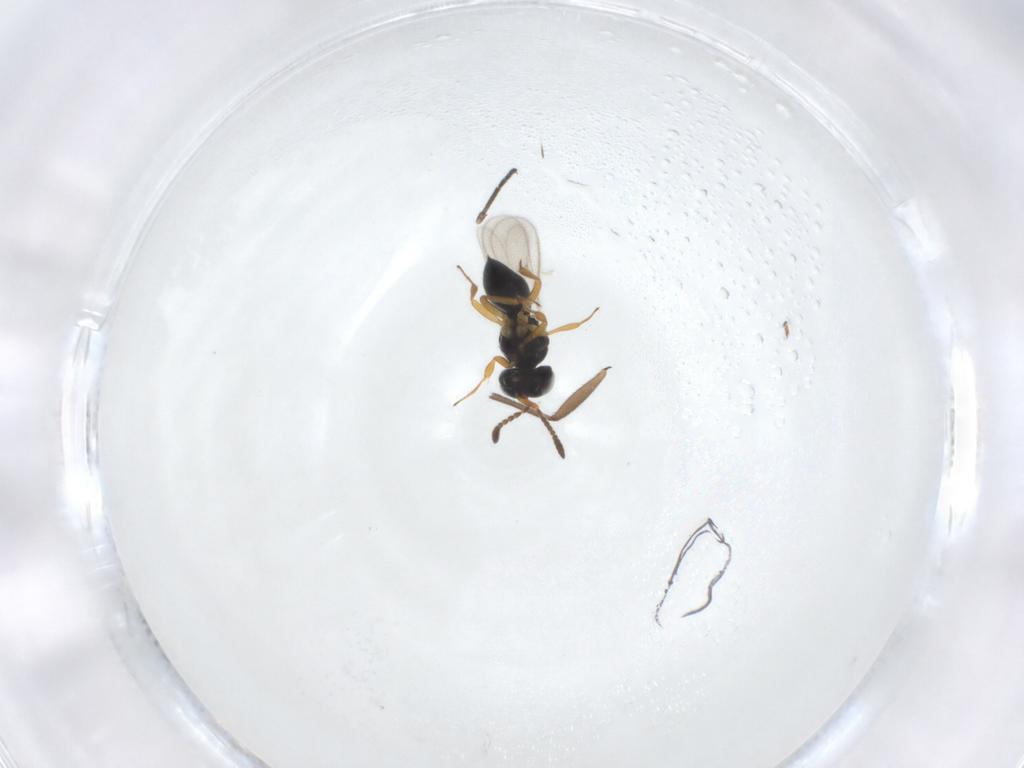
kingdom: Animalia
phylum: Arthropoda
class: Insecta
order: Hymenoptera
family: Scelionidae
